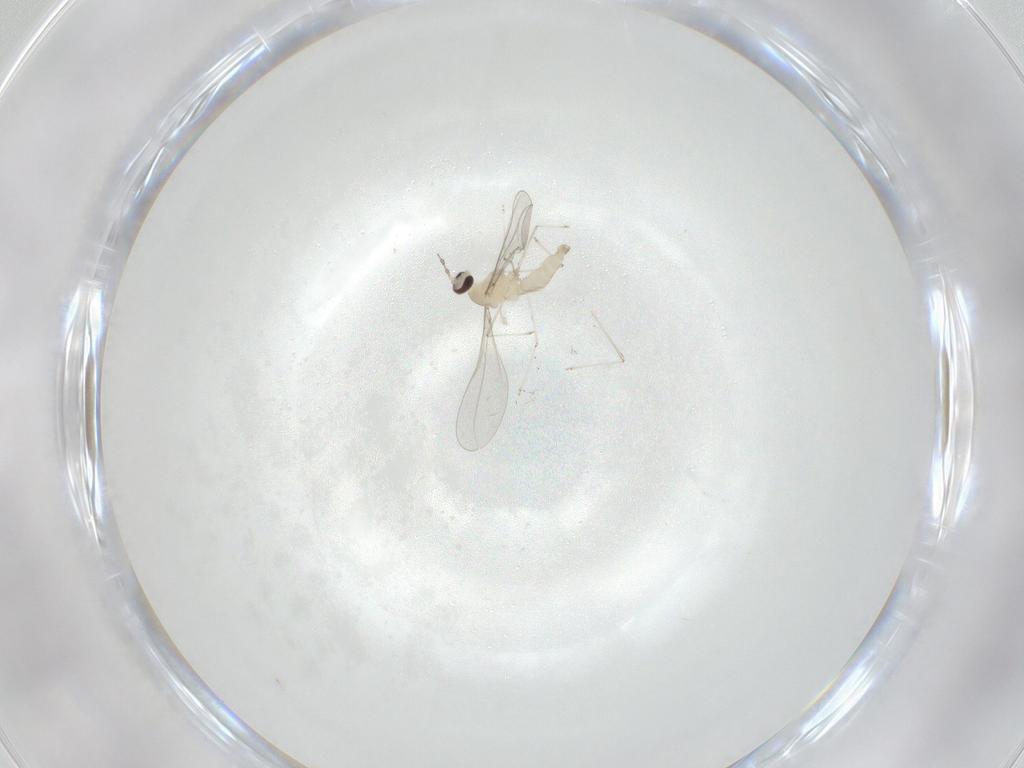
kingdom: Animalia
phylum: Arthropoda
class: Insecta
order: Diptera
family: Cecidomyiidae
